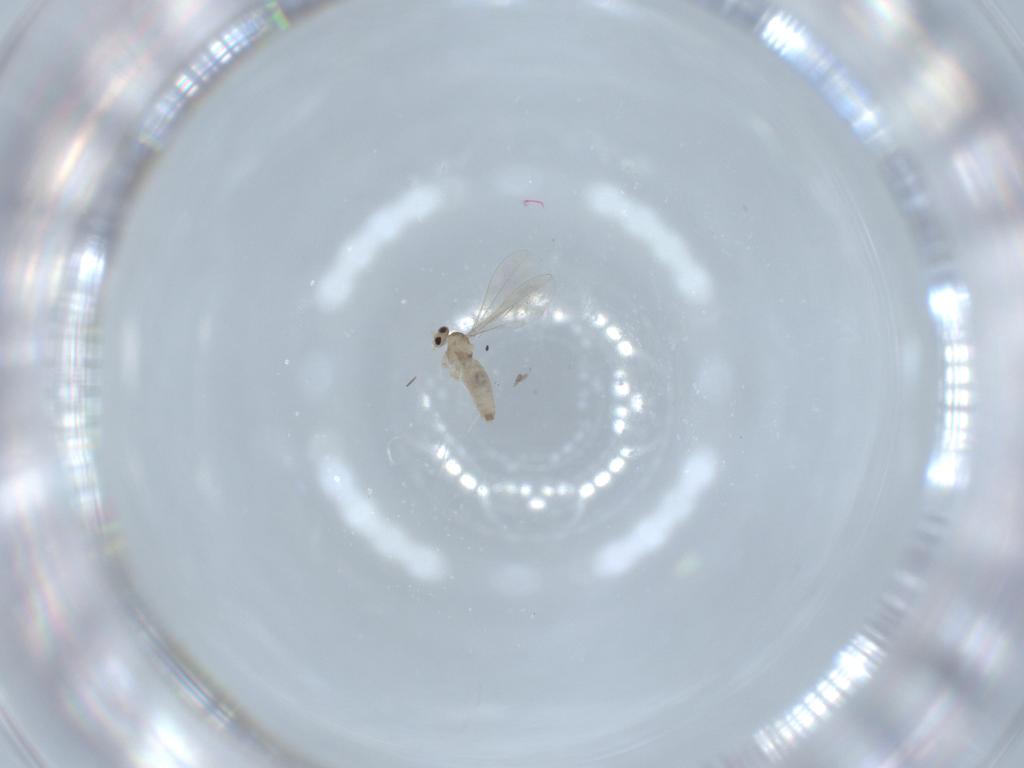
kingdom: Animalia
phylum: Arthropoda
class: Insecta
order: Diptera
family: Cecidomyiidae
